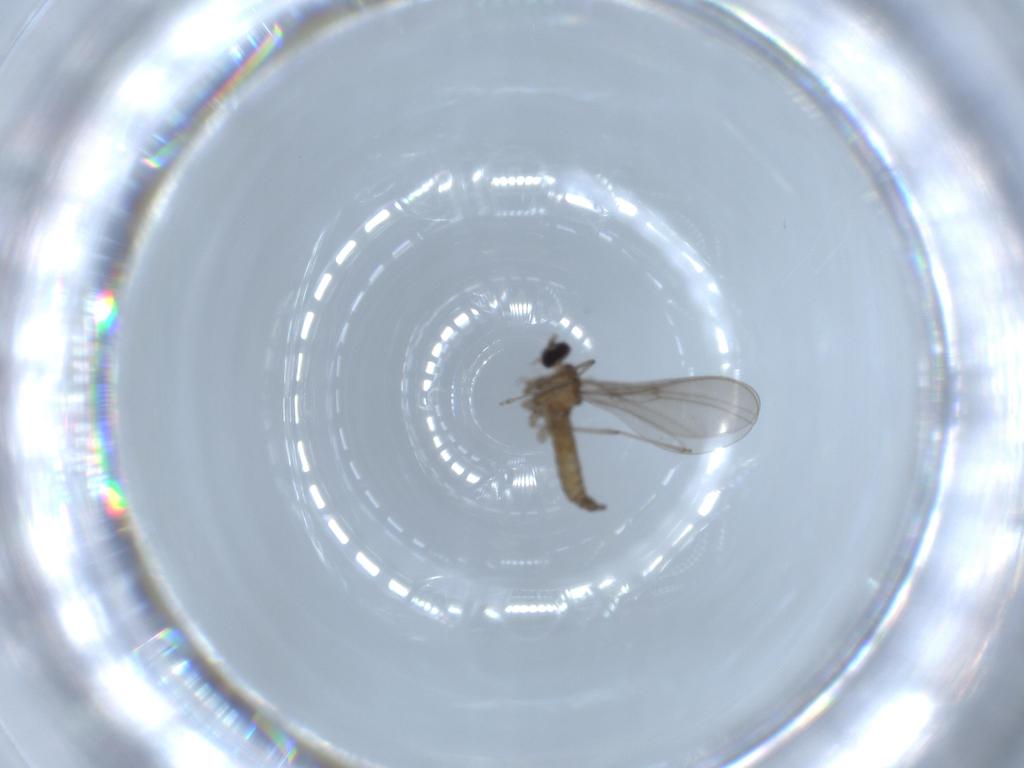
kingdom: Animalia
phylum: Arthropoda
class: Insecta
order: Diptera
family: Cecidomyiidae
